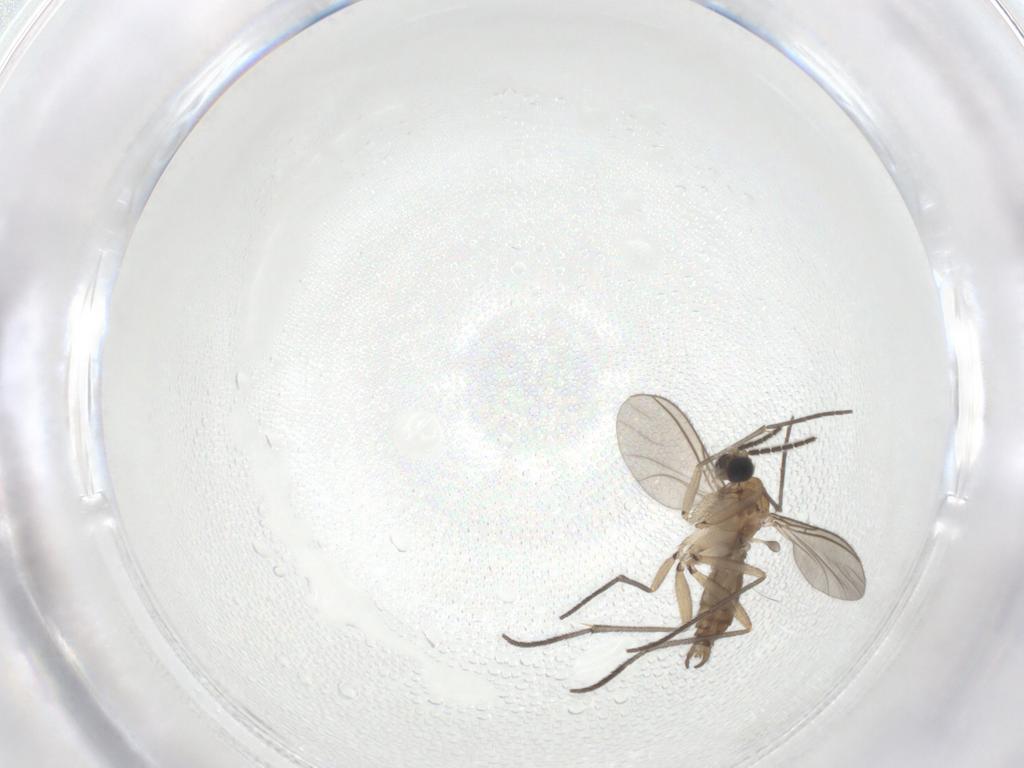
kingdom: Animalia
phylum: Arthropoda
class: Insecta
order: Diptera
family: Sciaridae
